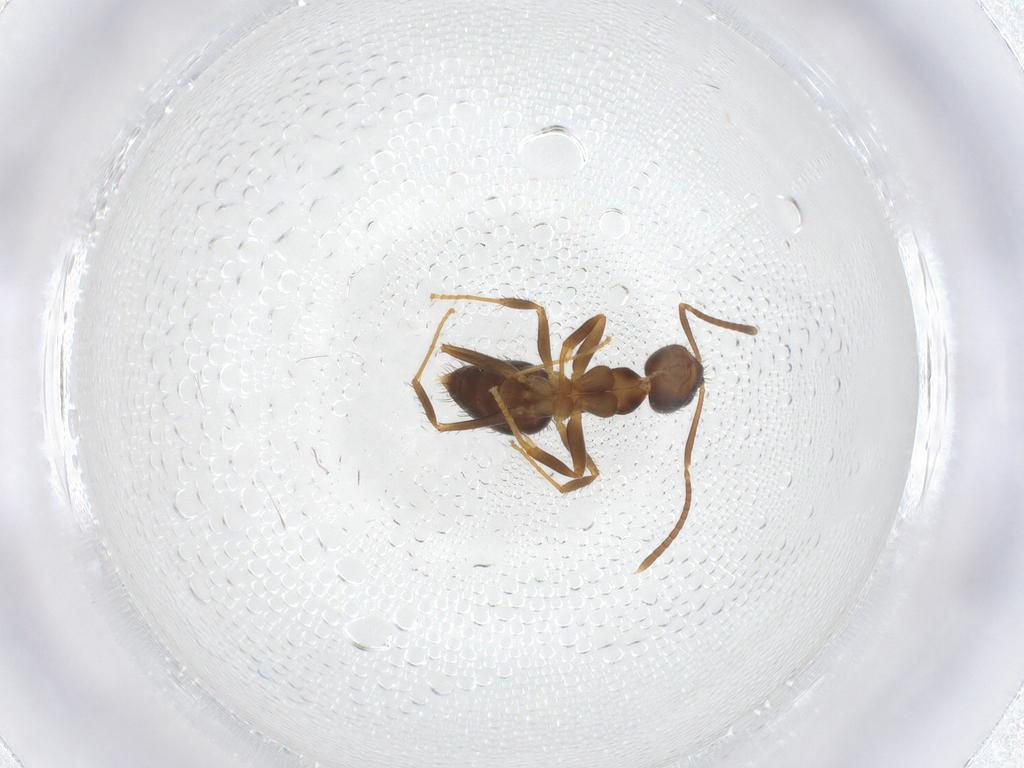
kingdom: Animalia
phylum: Arthropoda
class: Insecta
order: Hymenoptera
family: Formicidae
